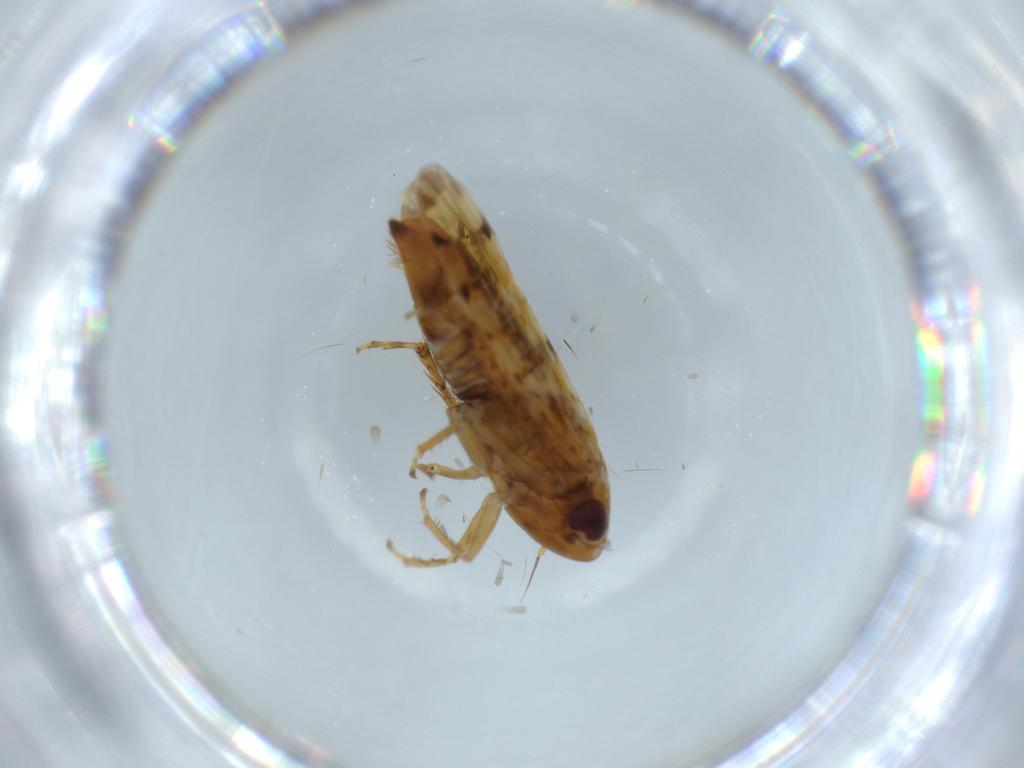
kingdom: Animalia
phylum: Arthropoda
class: Insecta
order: Hemiptera
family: Cicadellidae
